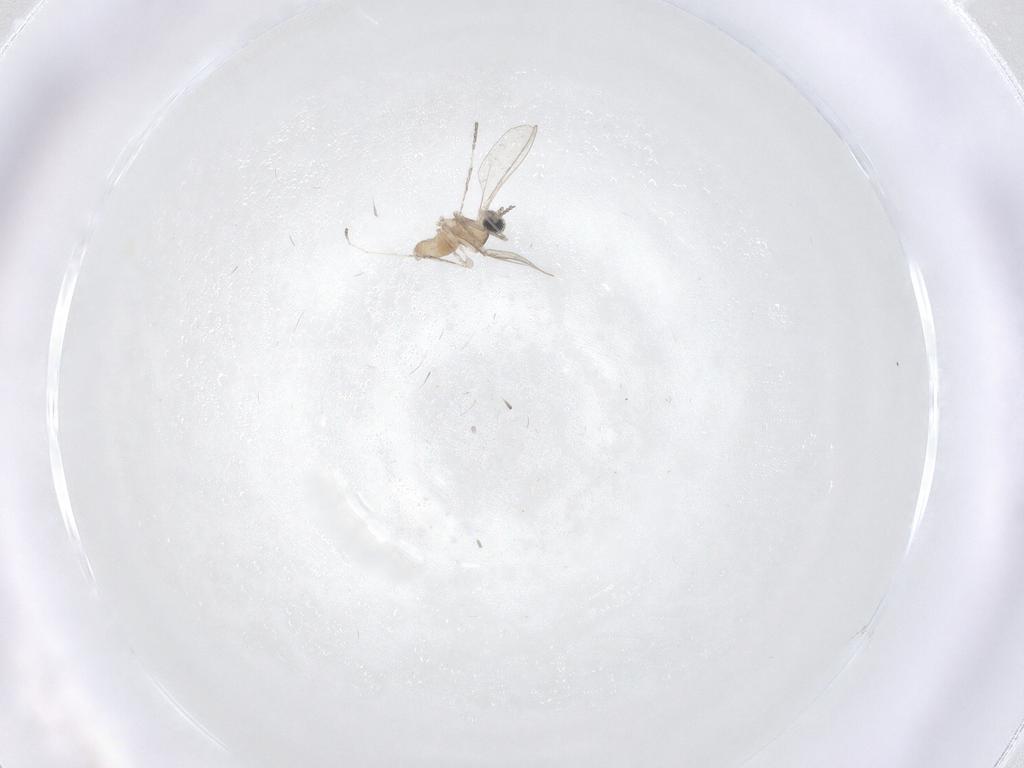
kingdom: Animalia
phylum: Arthropoda
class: Insecta
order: Diptera
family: Cecidomyiidae
